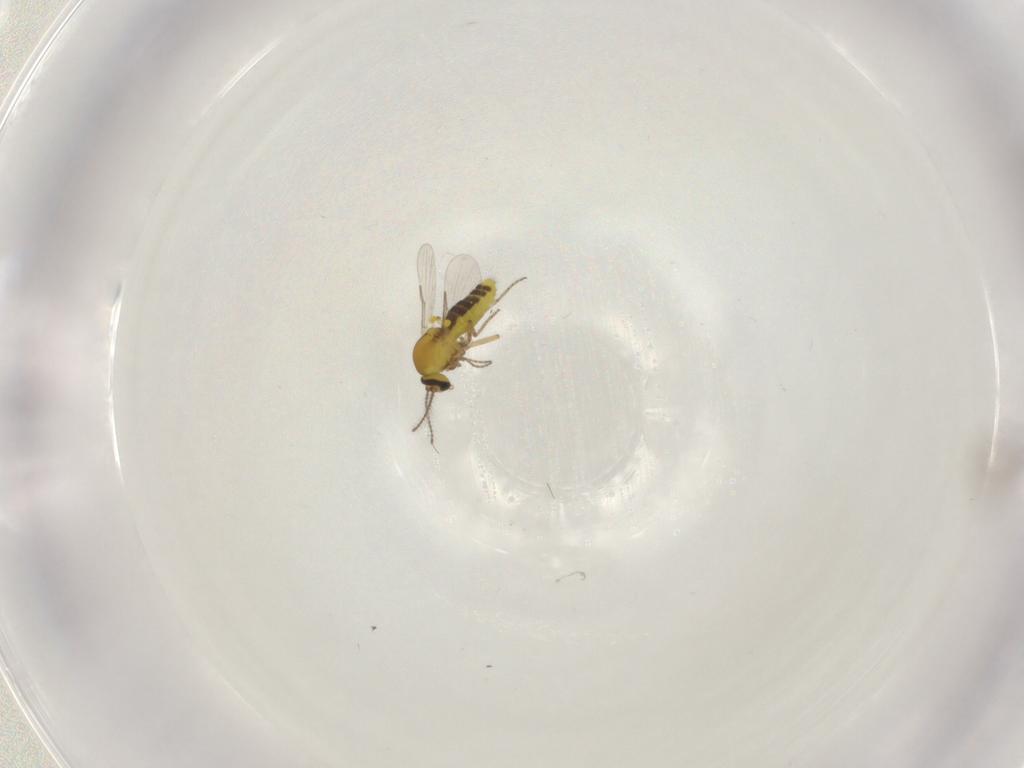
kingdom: Animalia
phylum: Arthropoda
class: Insecta
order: Diptera
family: Chironomidae
